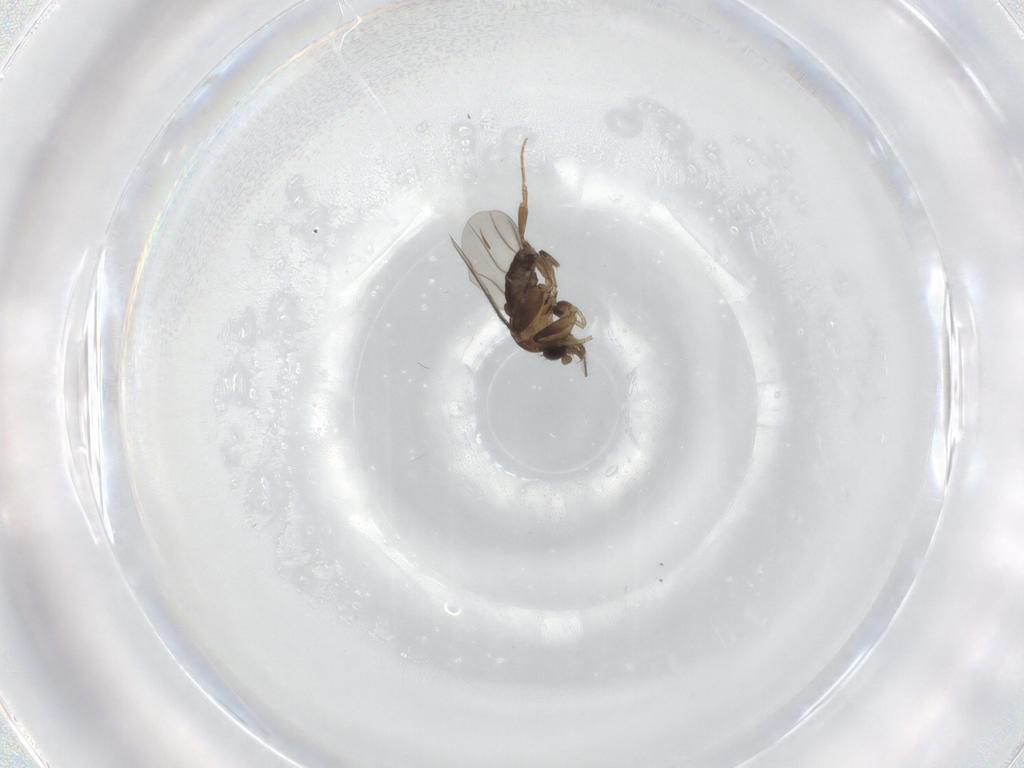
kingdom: Animalia
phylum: Arthropoda
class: Insecta
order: Diptera
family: Phoridae
